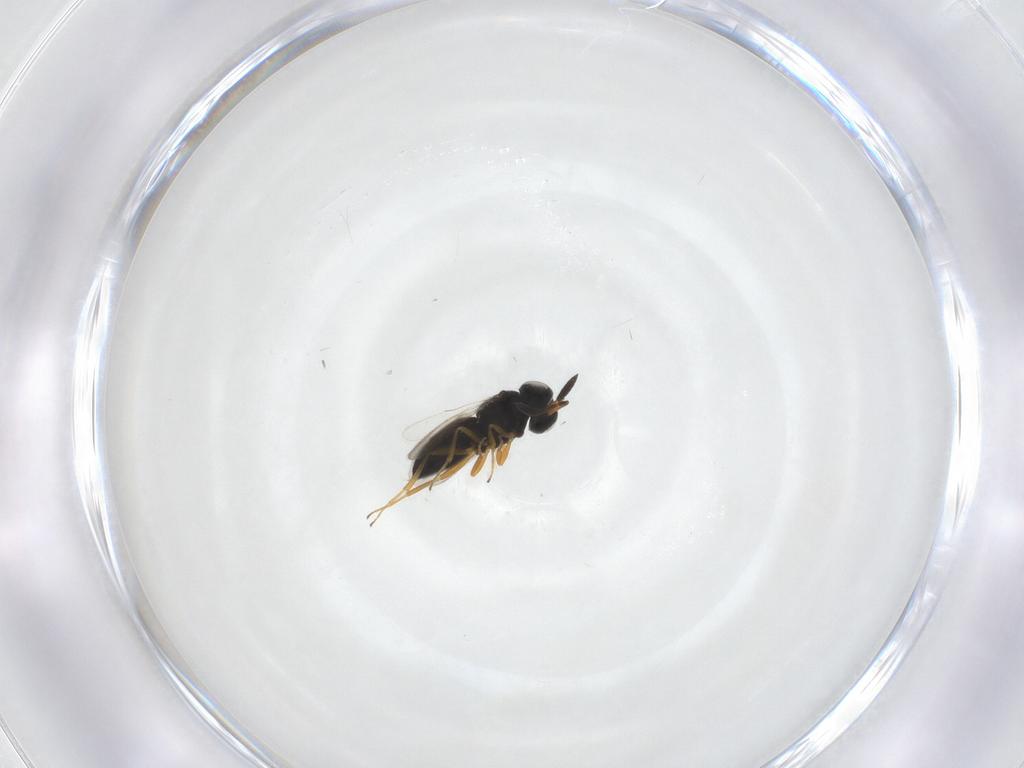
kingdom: Animalia
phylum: Arthropoda
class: Insecta
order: Hymenoptera
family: Scelionidae
